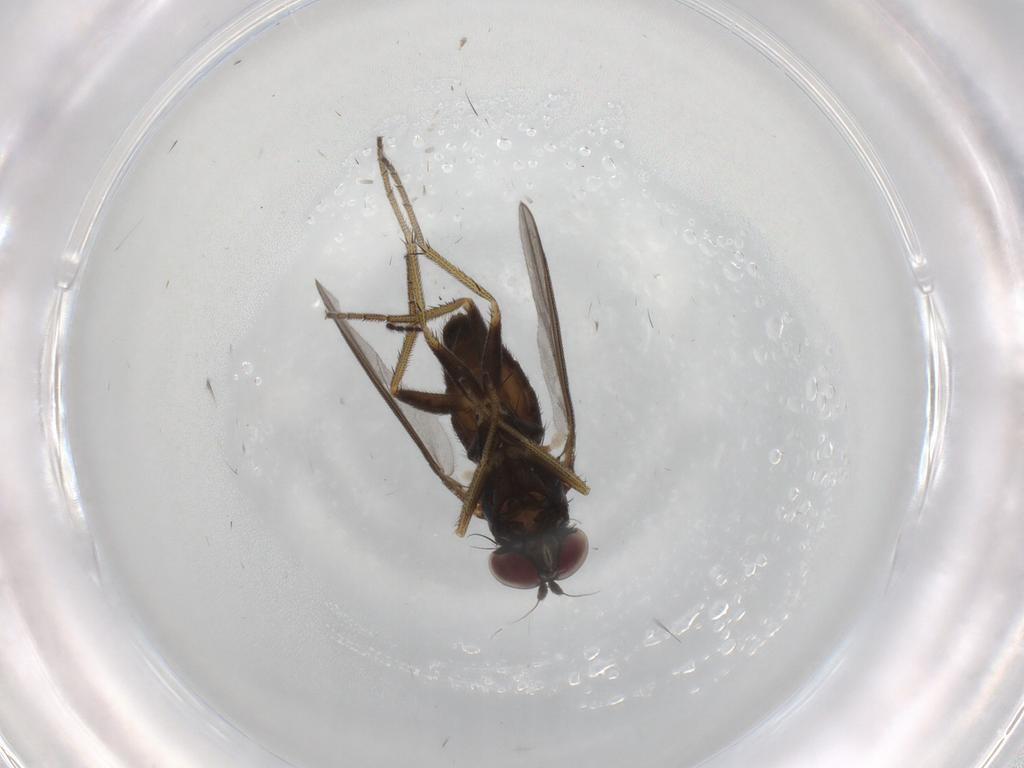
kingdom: Animalia
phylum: Arthropoda
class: Insecta
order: Diptera
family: Sciaridae
